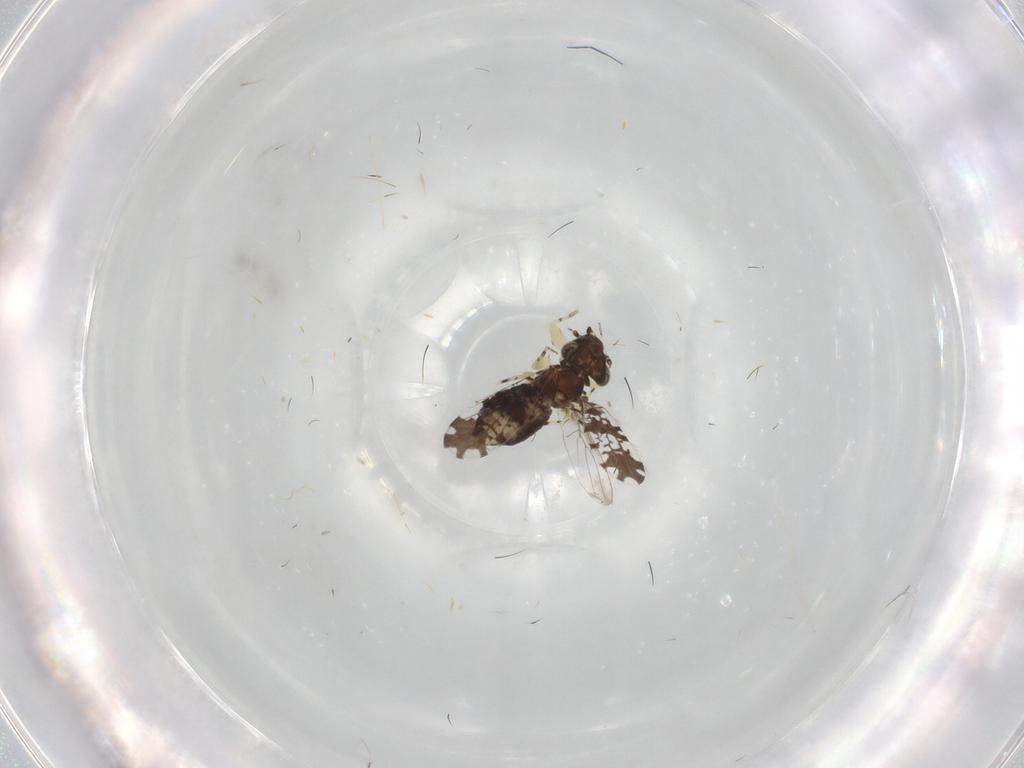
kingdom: Animalia
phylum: Arthropoda
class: Insecta
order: Psocodea
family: Psoquillidae
